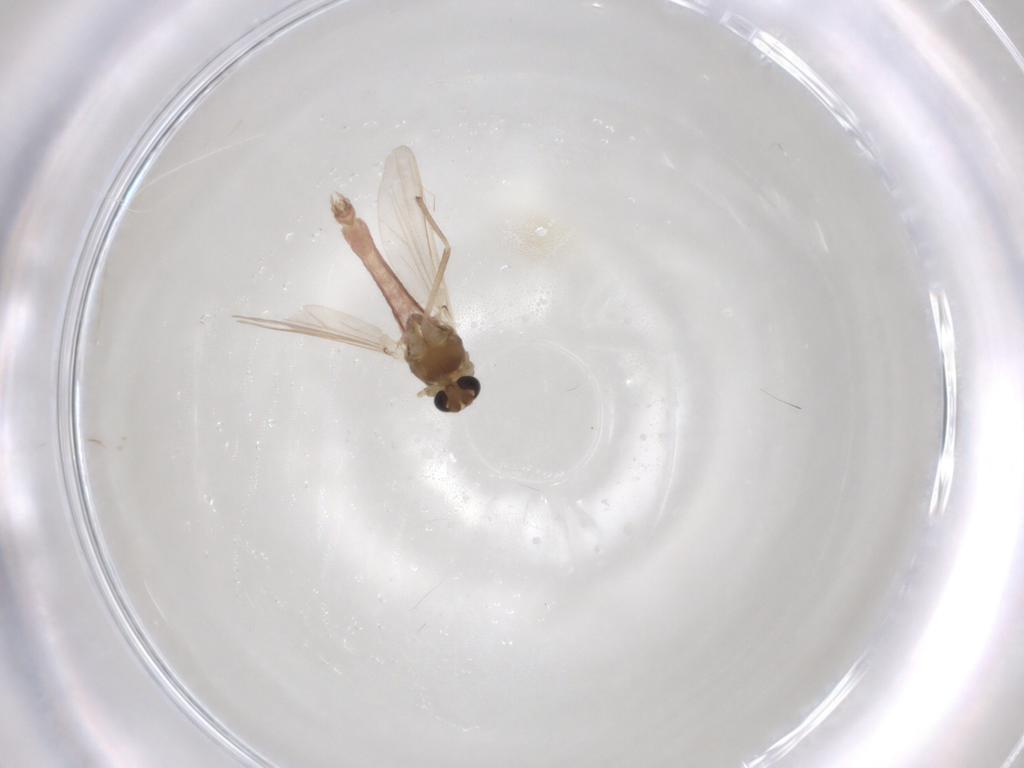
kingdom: Animalia
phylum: Arthropoda
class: Insecta
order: Diptera
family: Chironomidae
